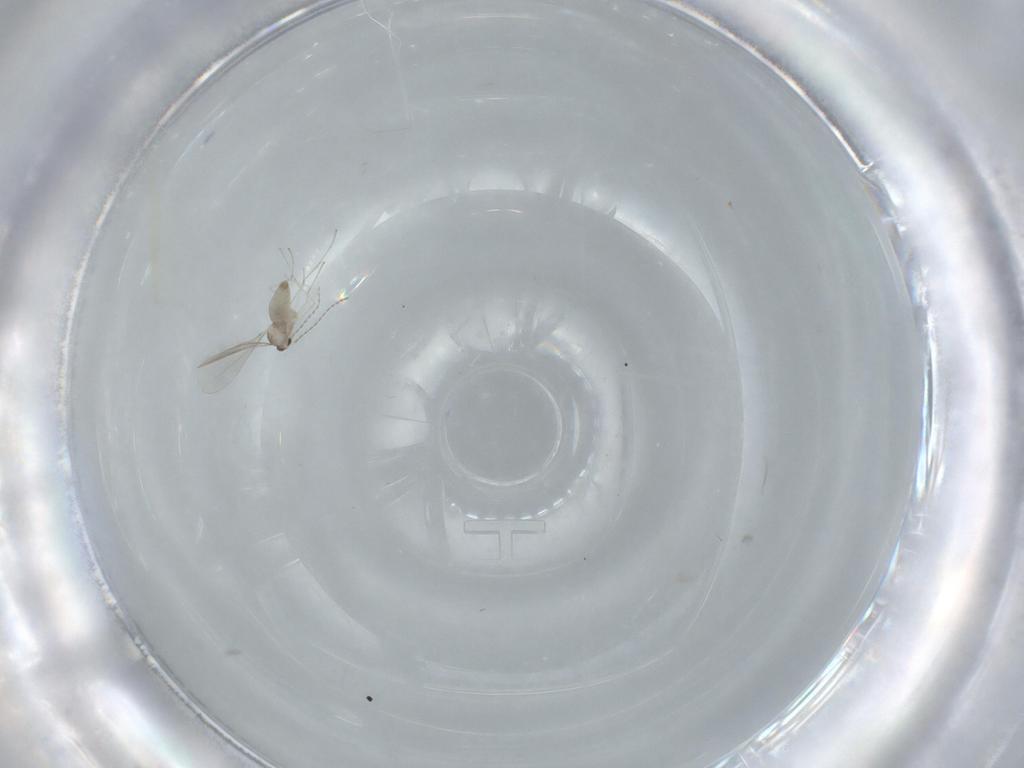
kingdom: Animalia
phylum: Arthropoda
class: Insecta
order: Diptera
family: Cecidomyiidae
